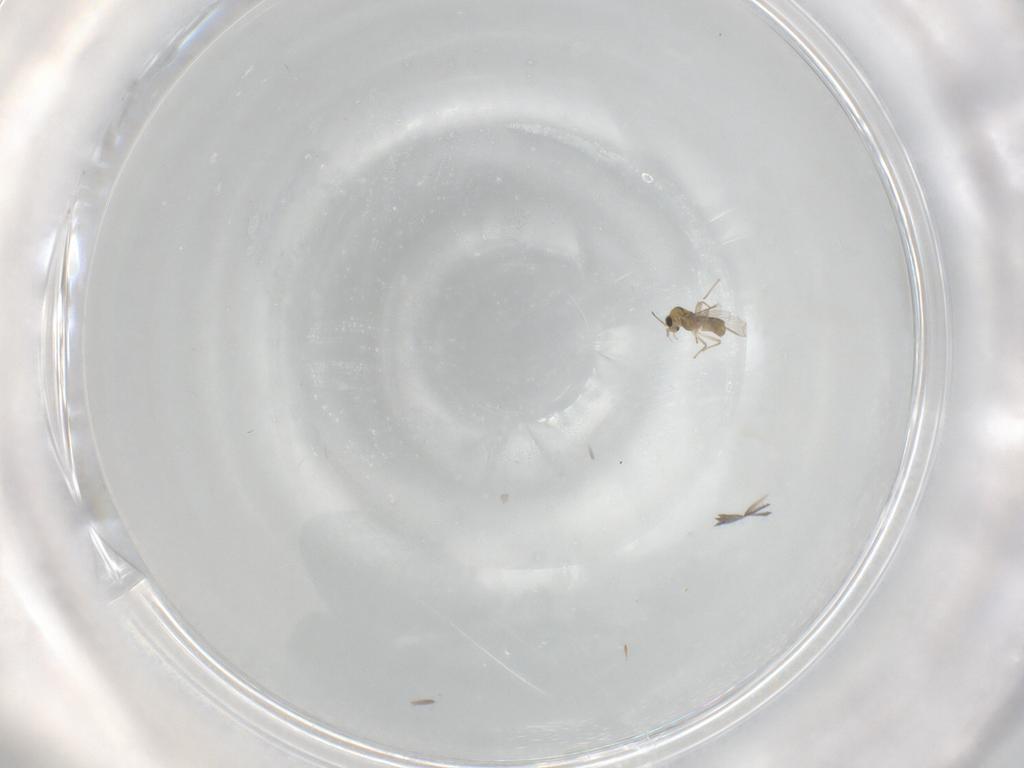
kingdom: Animalia
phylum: Arthropoda
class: Insecta
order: Diptera
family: Chironomidae
